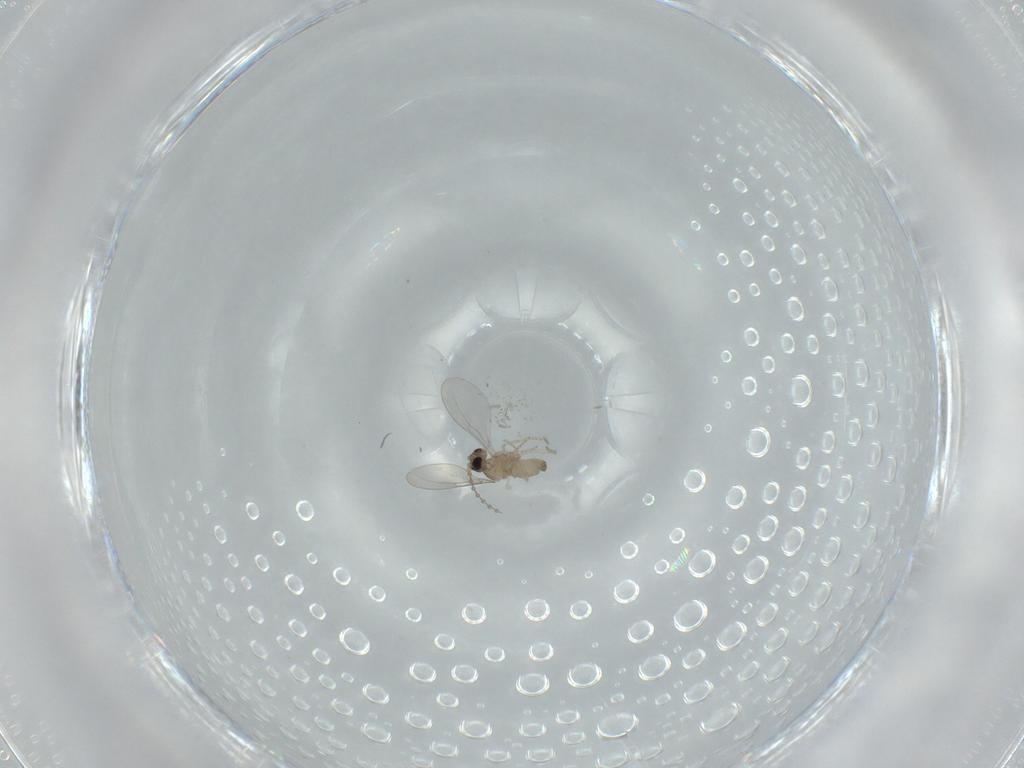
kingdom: Animalia
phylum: Arthropoda
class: Insecta
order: Diptera
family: Cecidomyiidae
